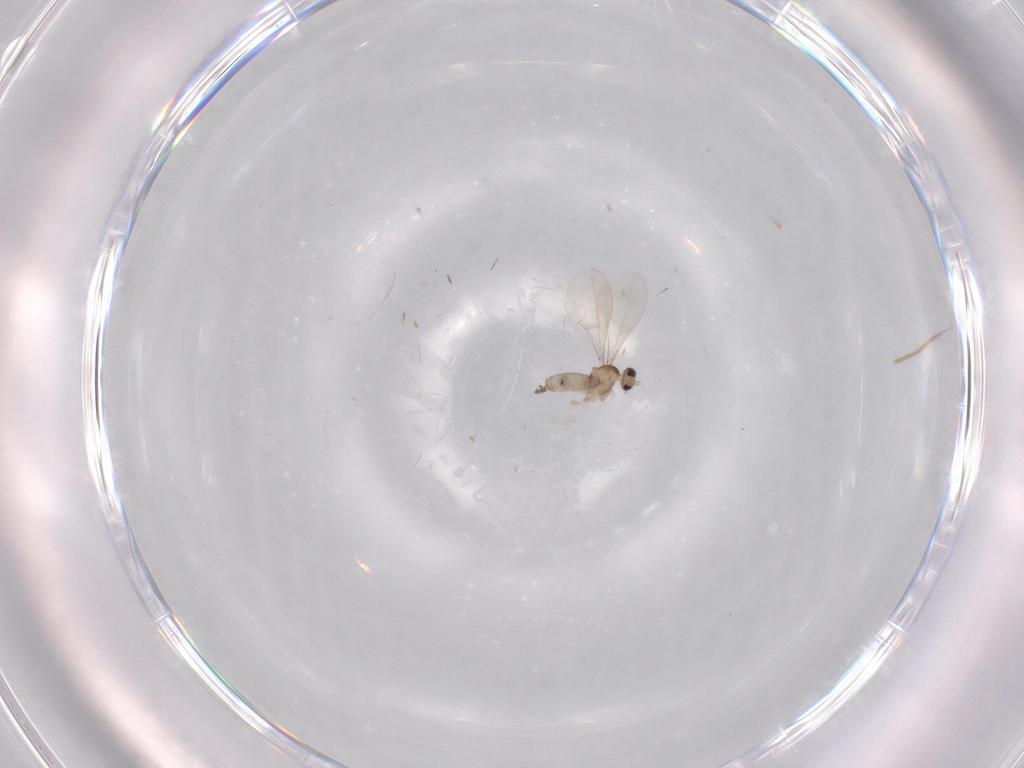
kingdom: Animalia
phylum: Arthropoda
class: Insecta
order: Diptera
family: Cecidomyiidae
